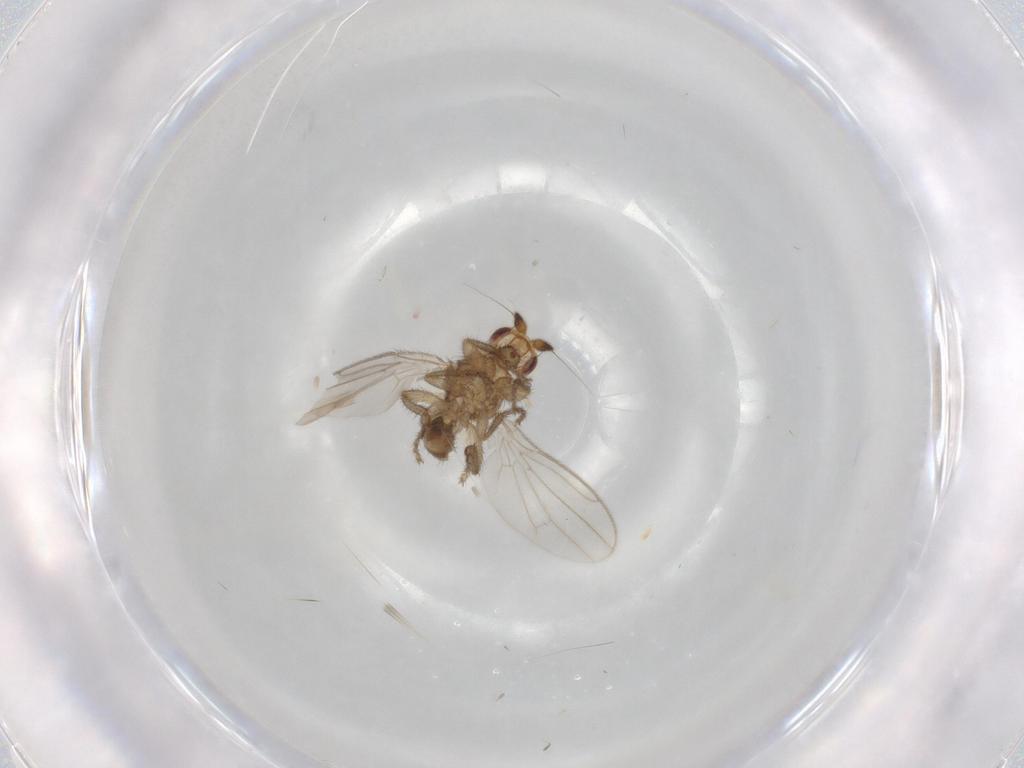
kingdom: Animalia
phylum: Arthropoda
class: Insecta
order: Diptera
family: Sphaeroceridae
